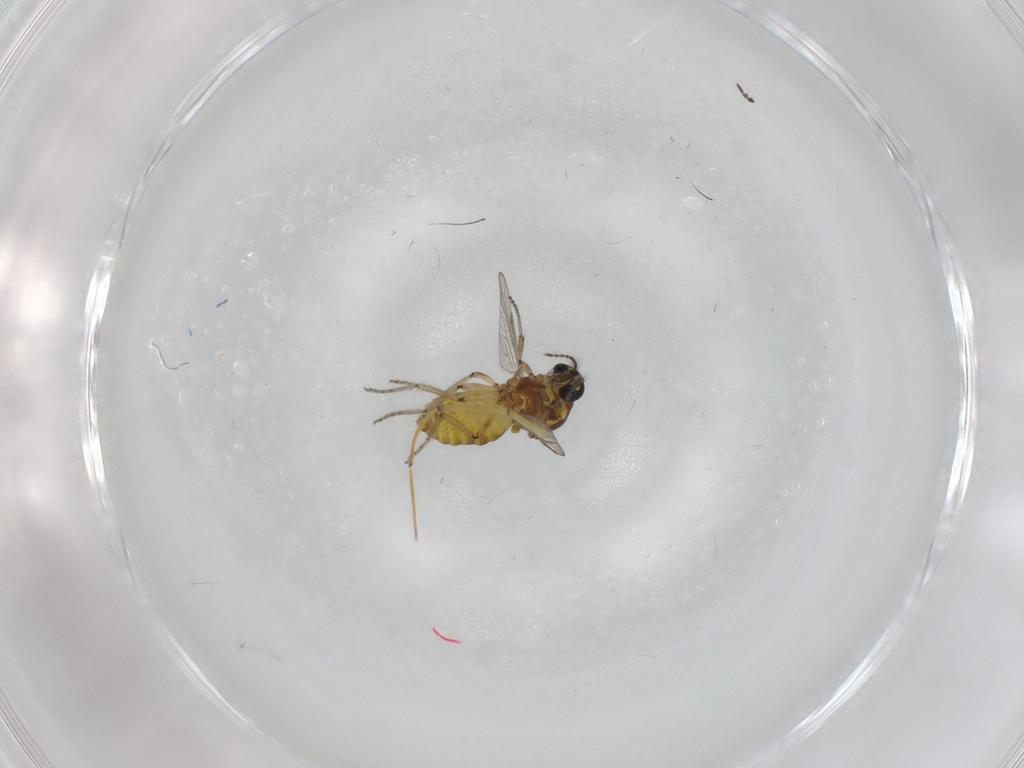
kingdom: Animalia
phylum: Arthropoda
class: Insecta
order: Diptera
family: Ceratopogonidae
